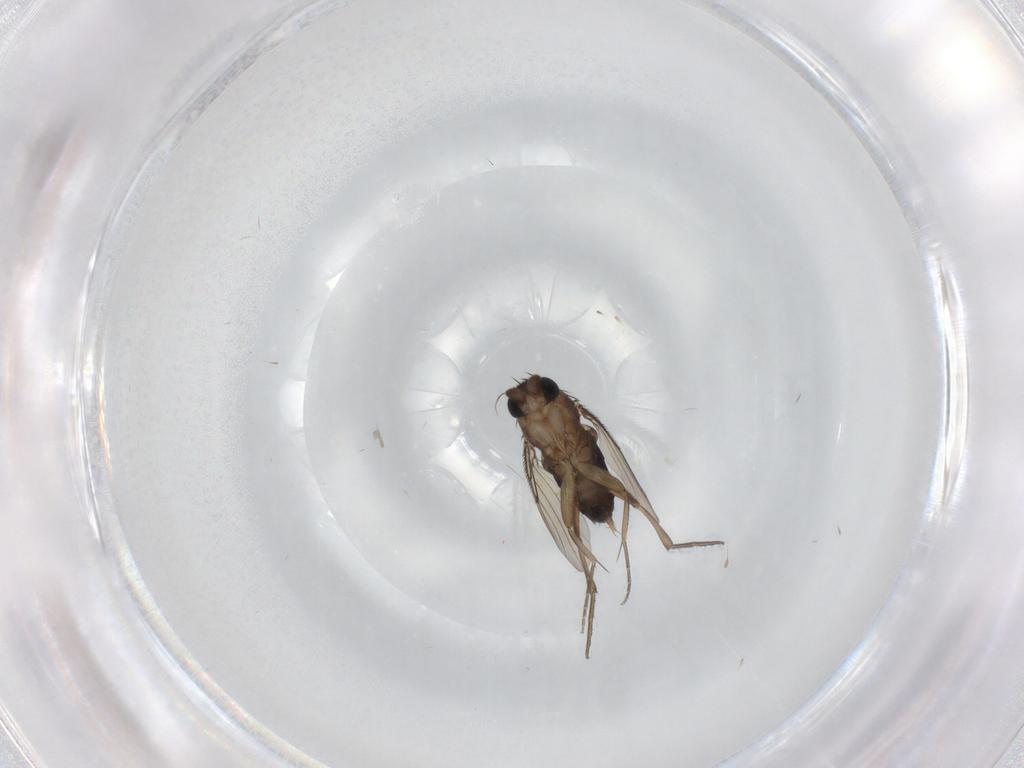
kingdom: Animalia
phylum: Arthropoda
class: Insecta
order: Diptera
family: Phoridae
